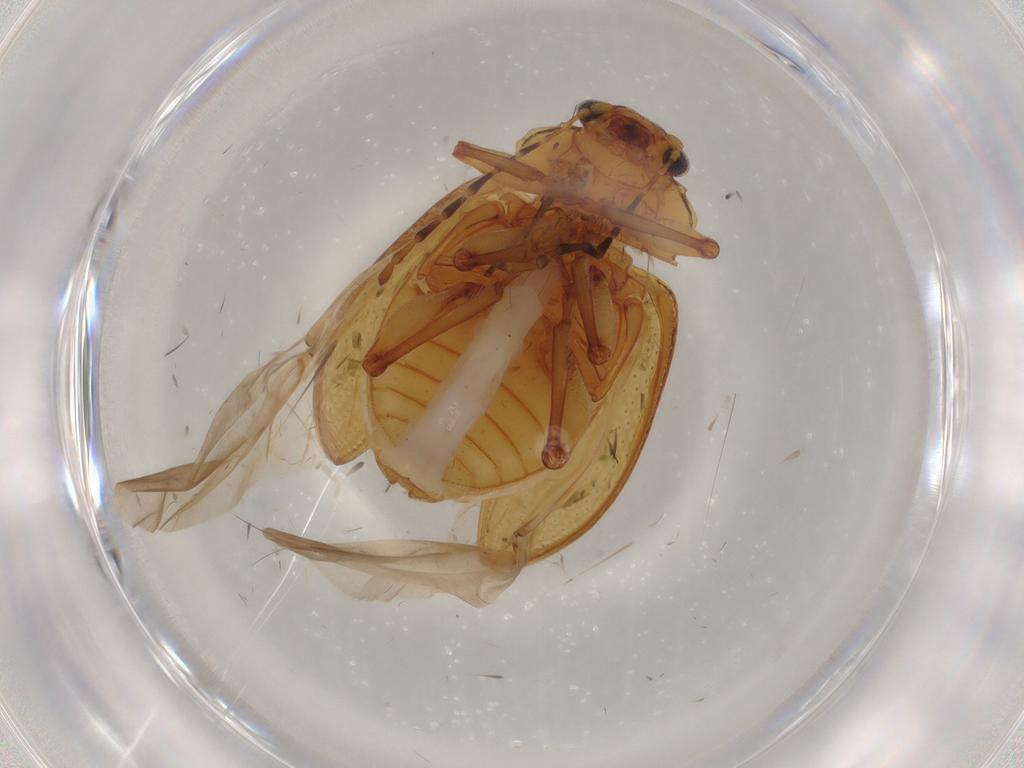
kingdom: Animalia
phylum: Arthropoda
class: Insecta
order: Coleoptera
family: Chrysomelidae
